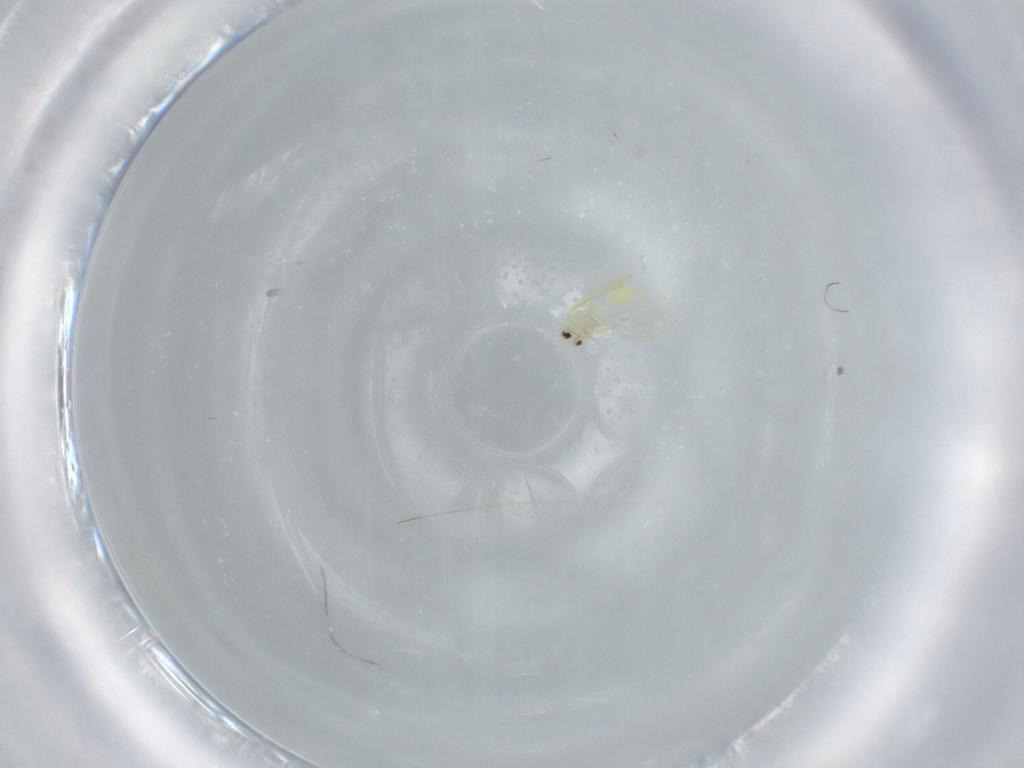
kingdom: Animalia
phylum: Arthropoda
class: Insecta
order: Hemiptera
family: Aleyrodidae
